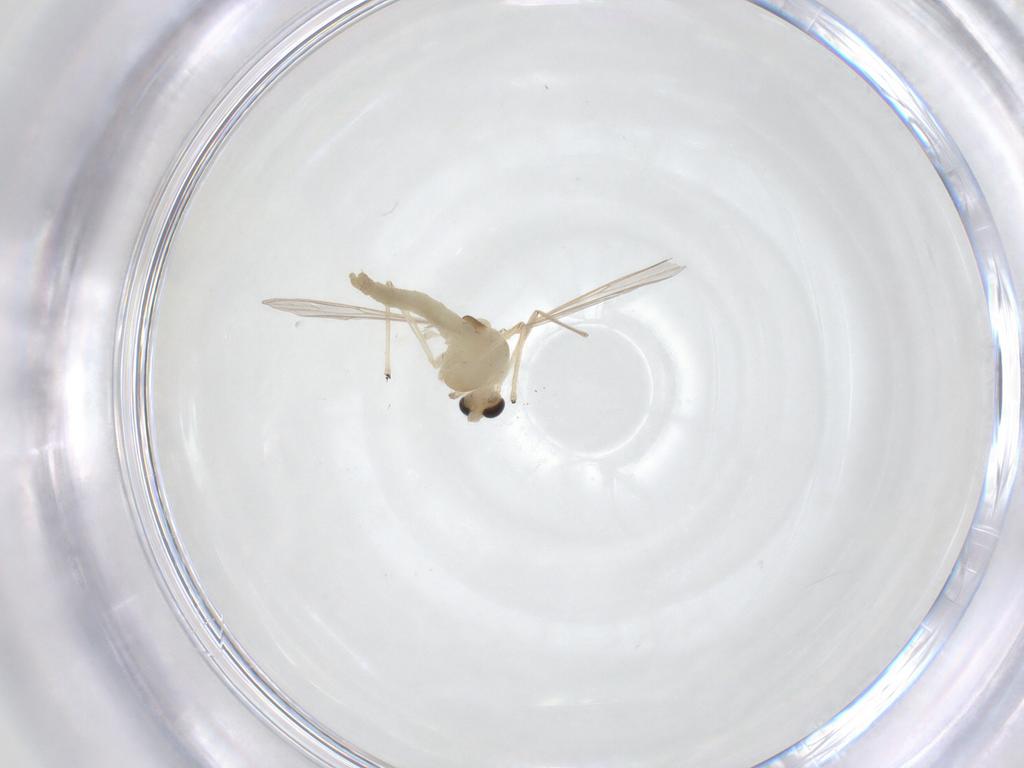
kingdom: Animalia
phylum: Arthropoda
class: Insecta
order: Diptera
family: Chironomidae
